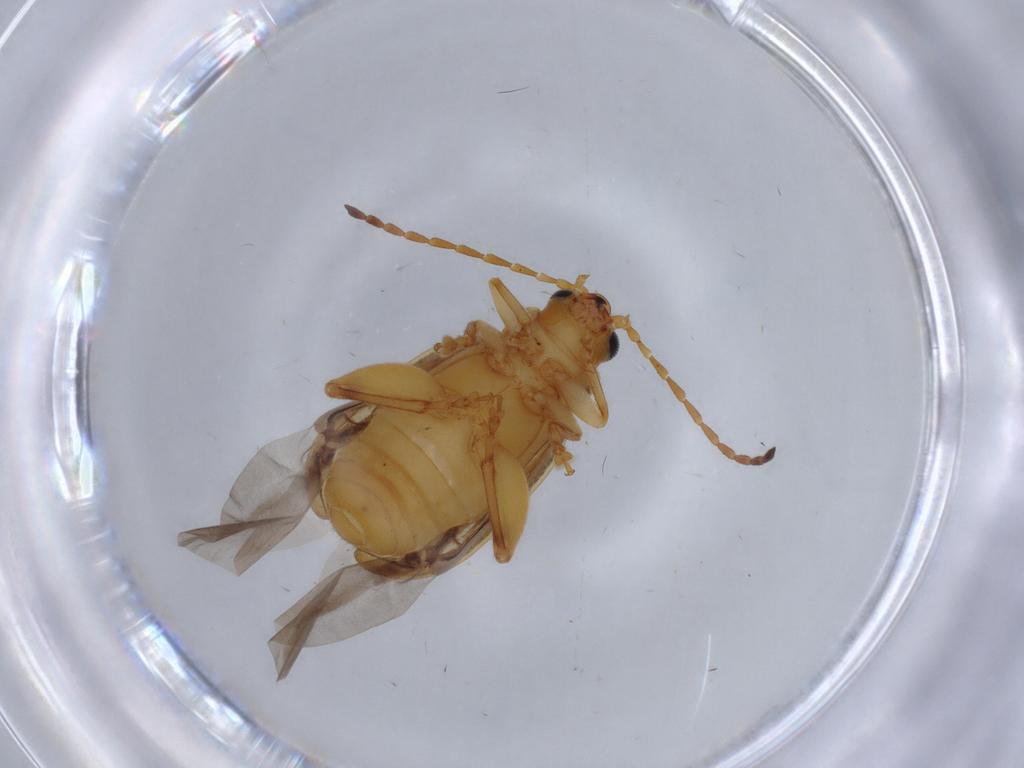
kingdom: Animalia
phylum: Arthropoda
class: Insecta
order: Coleoptera
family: Chrysomelidae
